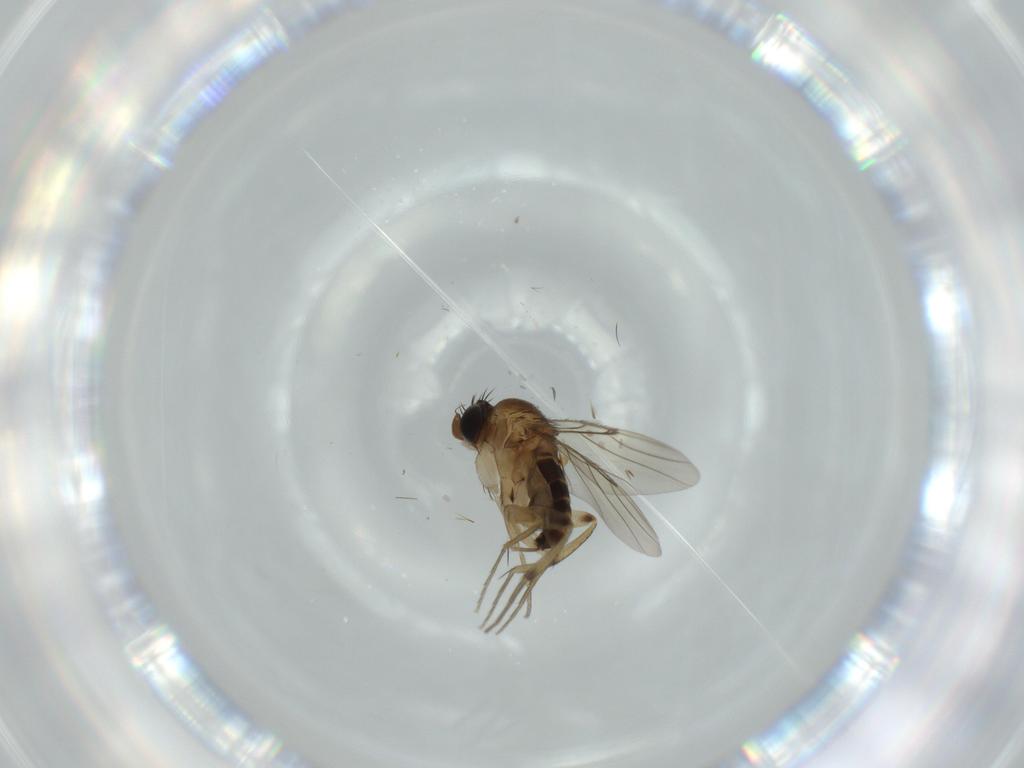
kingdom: Animalia
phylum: Arthropoda
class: Insecta
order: Diptera
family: Phoridae
